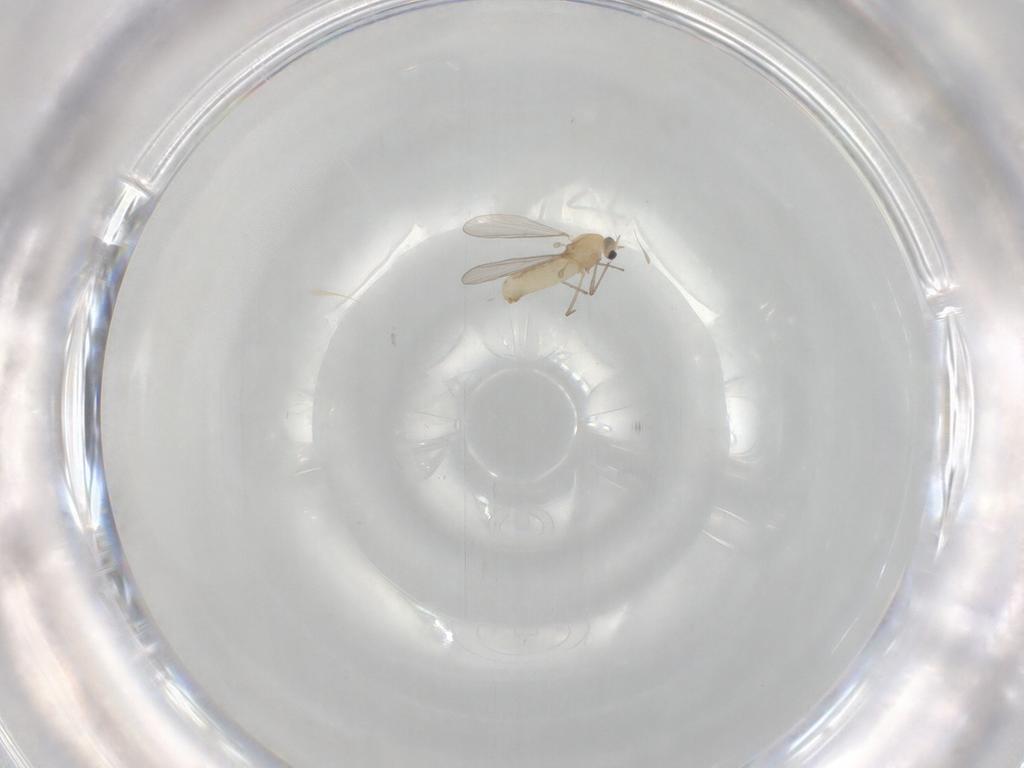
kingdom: Animalia
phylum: Arthropoda
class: Insecta
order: Diptera
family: Chironomidae
